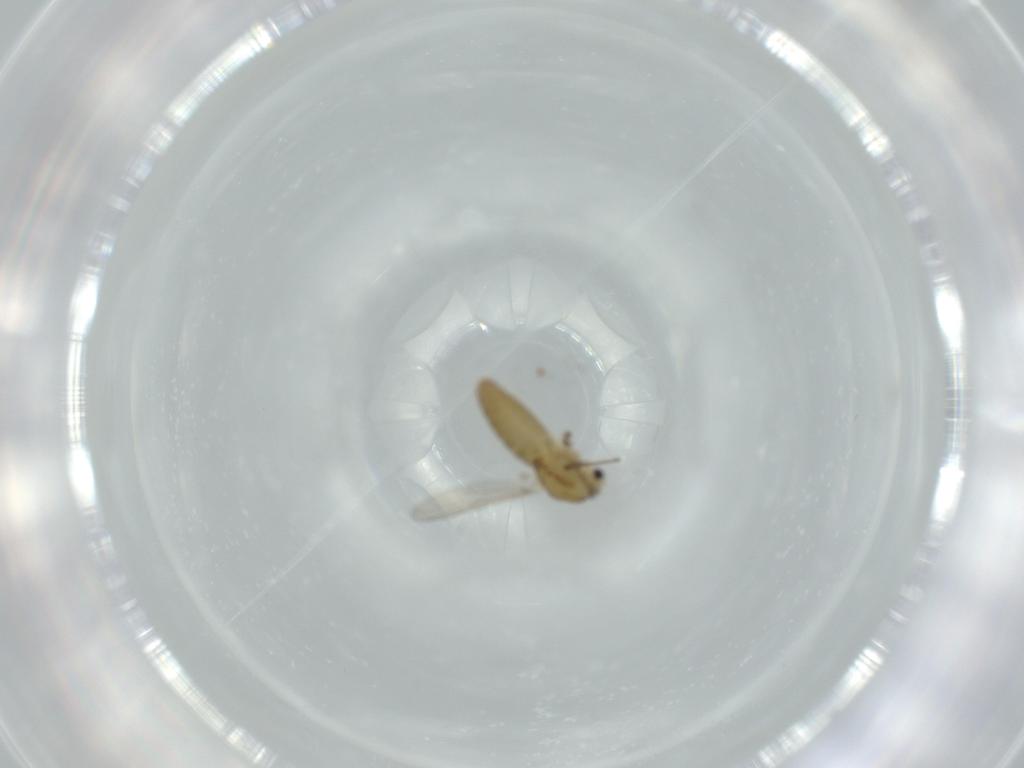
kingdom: Animalia
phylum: Arthropoda
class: Insecta
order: Diptera
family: Chironomidae
